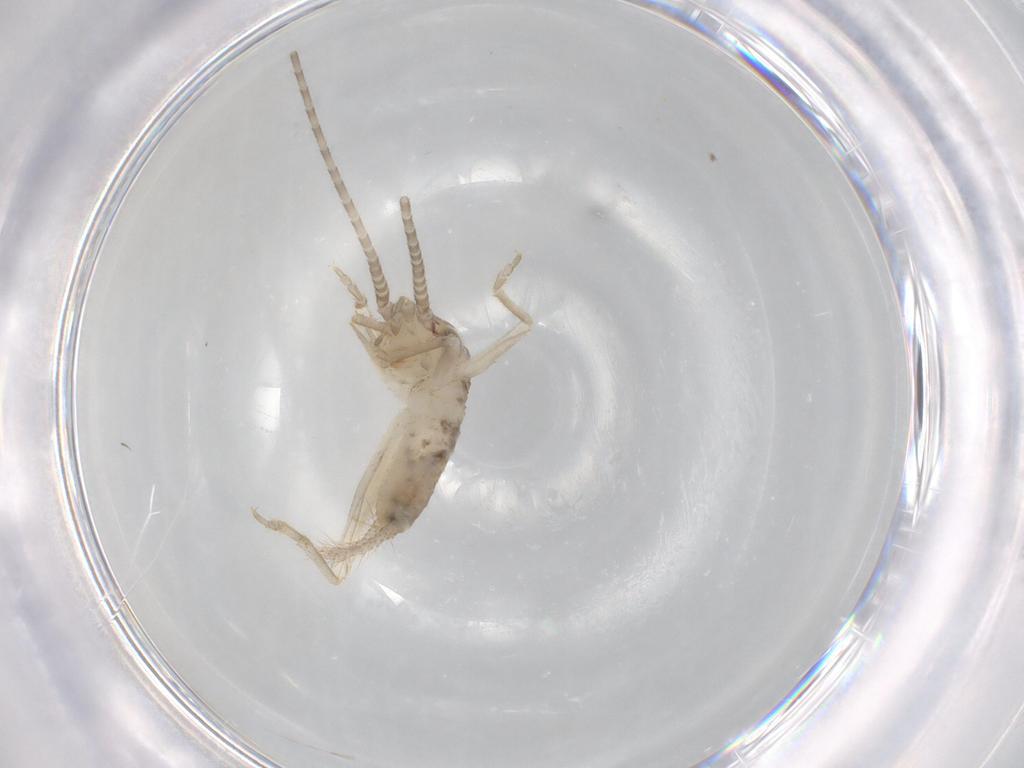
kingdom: Animalia
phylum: Arthropoda
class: Insecta
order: Orthoptera
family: Gryllidae
